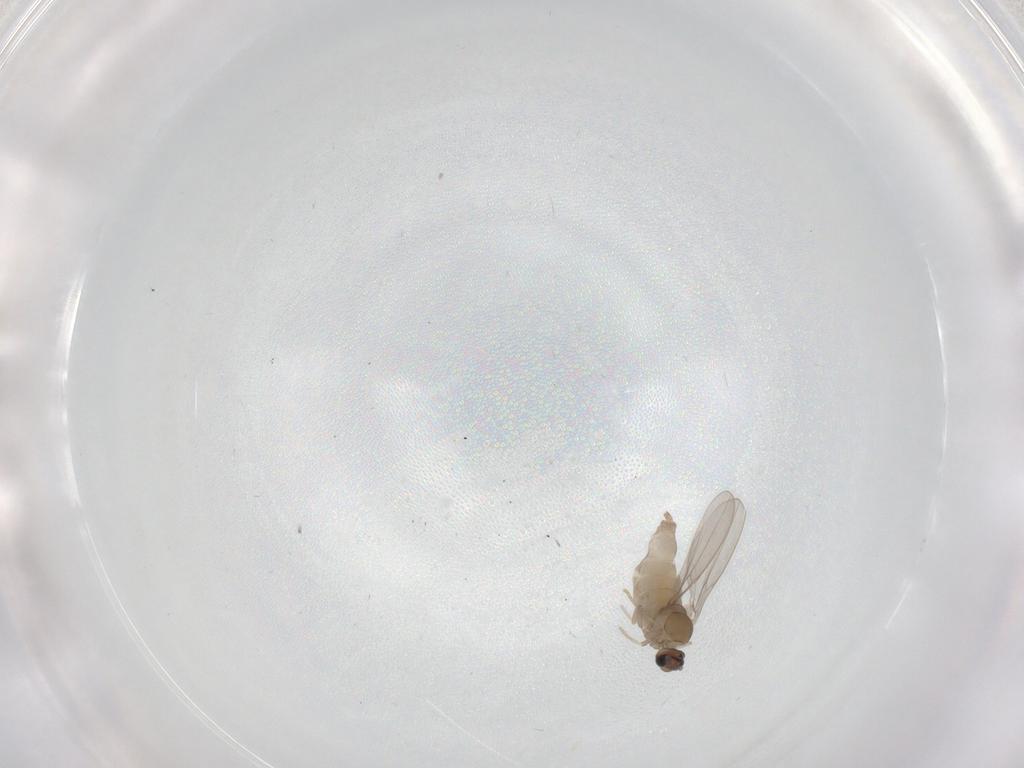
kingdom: Animalia
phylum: Arthropoda
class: Insecta
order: Diptera
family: Cecidomyiidae
